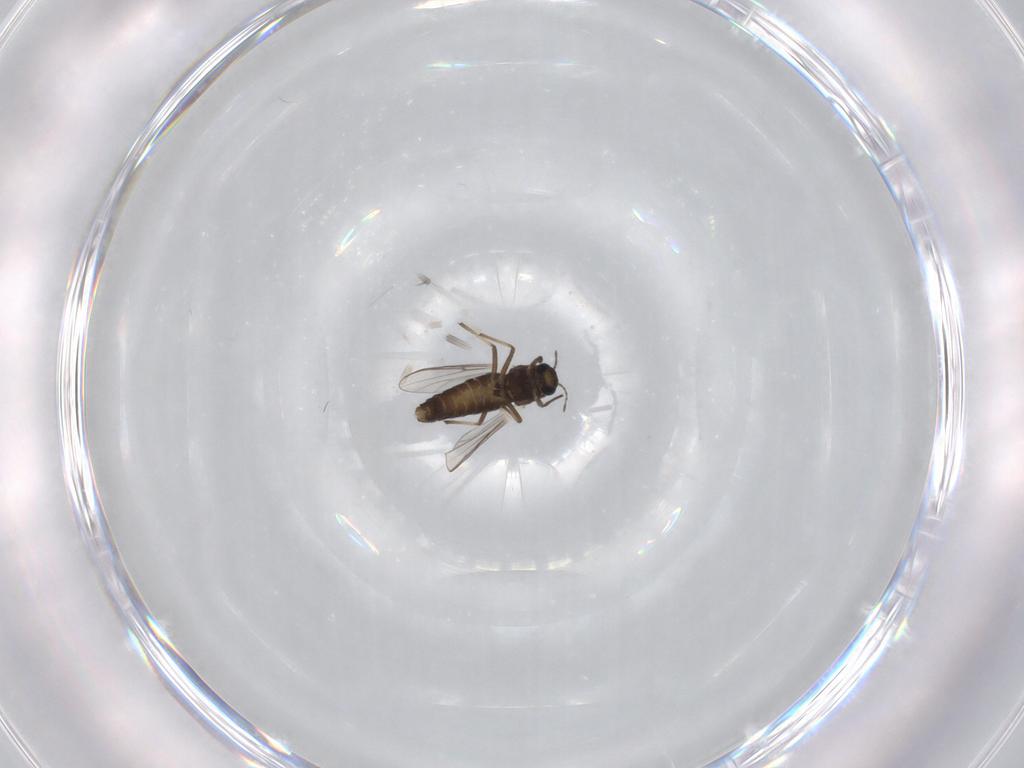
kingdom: Animalia
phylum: Arthropoda
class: Insecta
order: Diptera
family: Chironomidae
